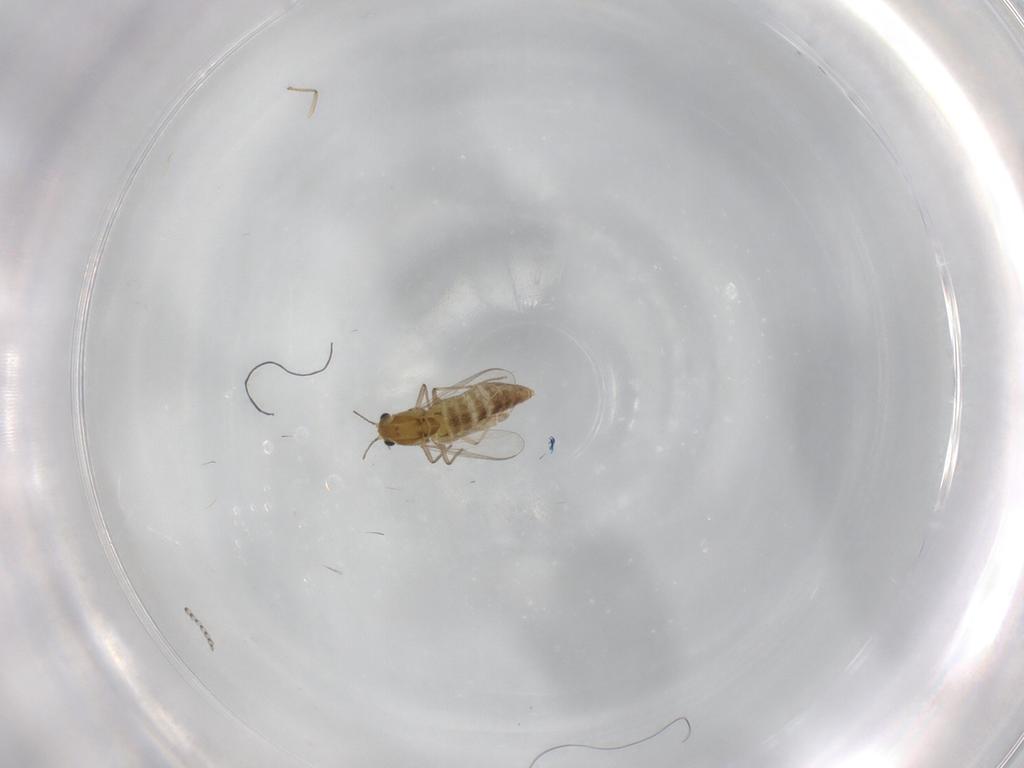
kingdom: Animalia
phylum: Arthropoda
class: Insecta
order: Diptera
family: Chironomidae
